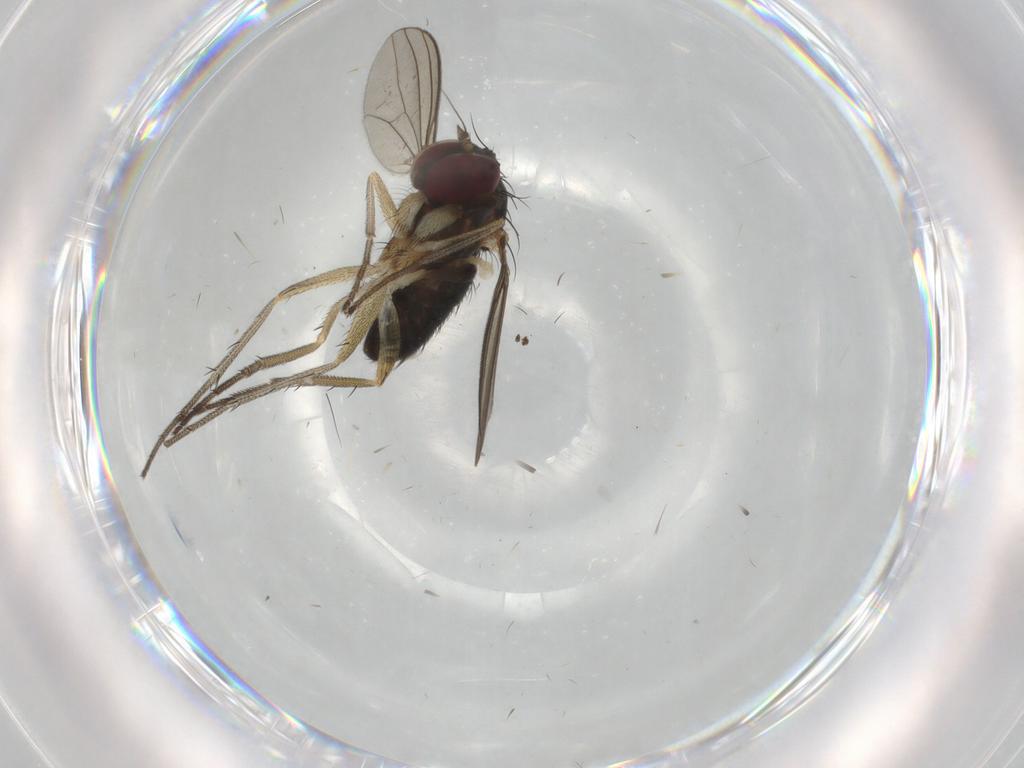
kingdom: Animalia
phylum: Arthropoda
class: Insecta
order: Diptera
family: Dolichopodidae
